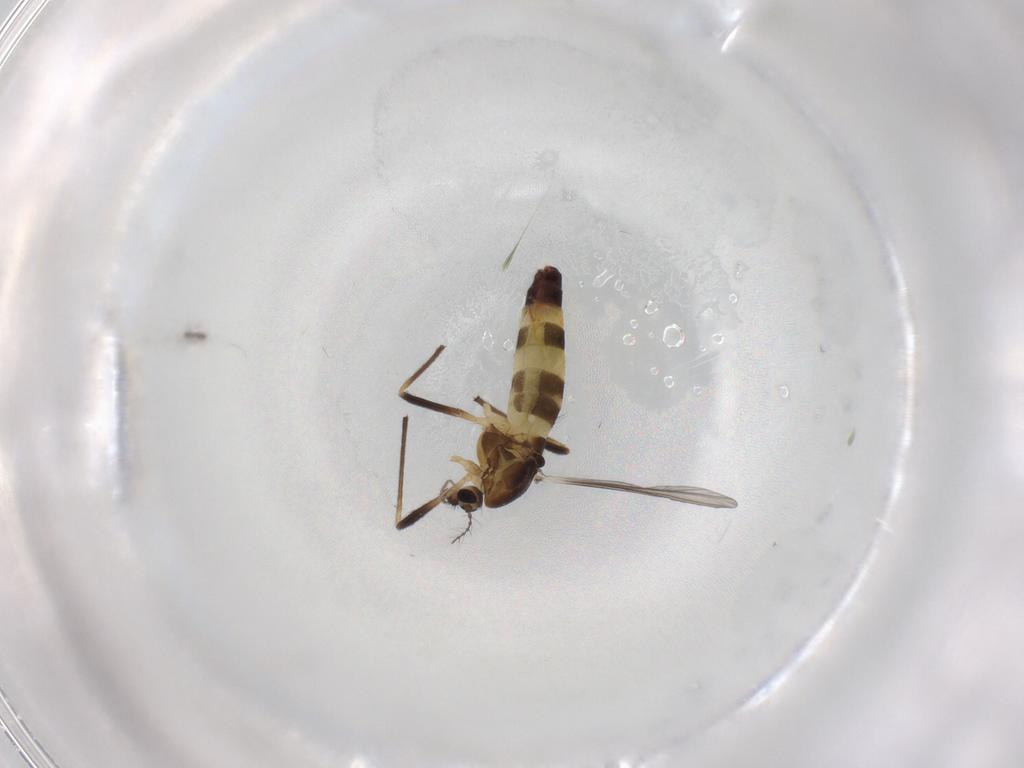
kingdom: Animalia
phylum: Arthropoda
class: Insecta
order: Diptera
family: Chironomidae
